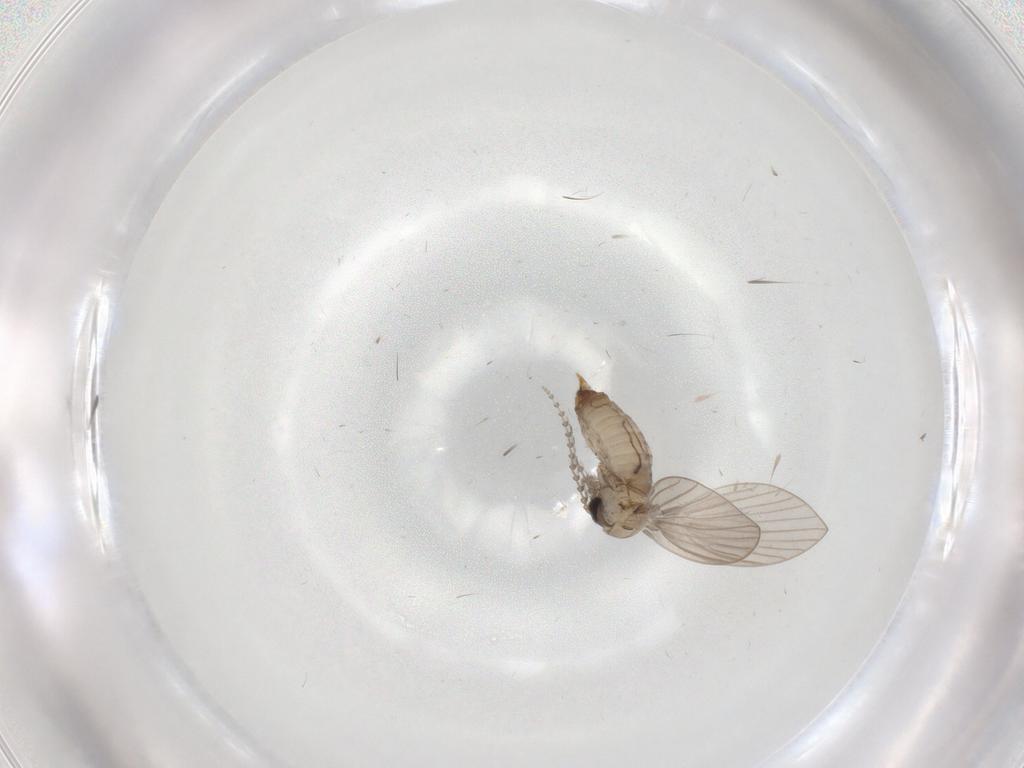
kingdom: Animalia
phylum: Arthropoda
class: Insecta
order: Diptera
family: Psychodidae
